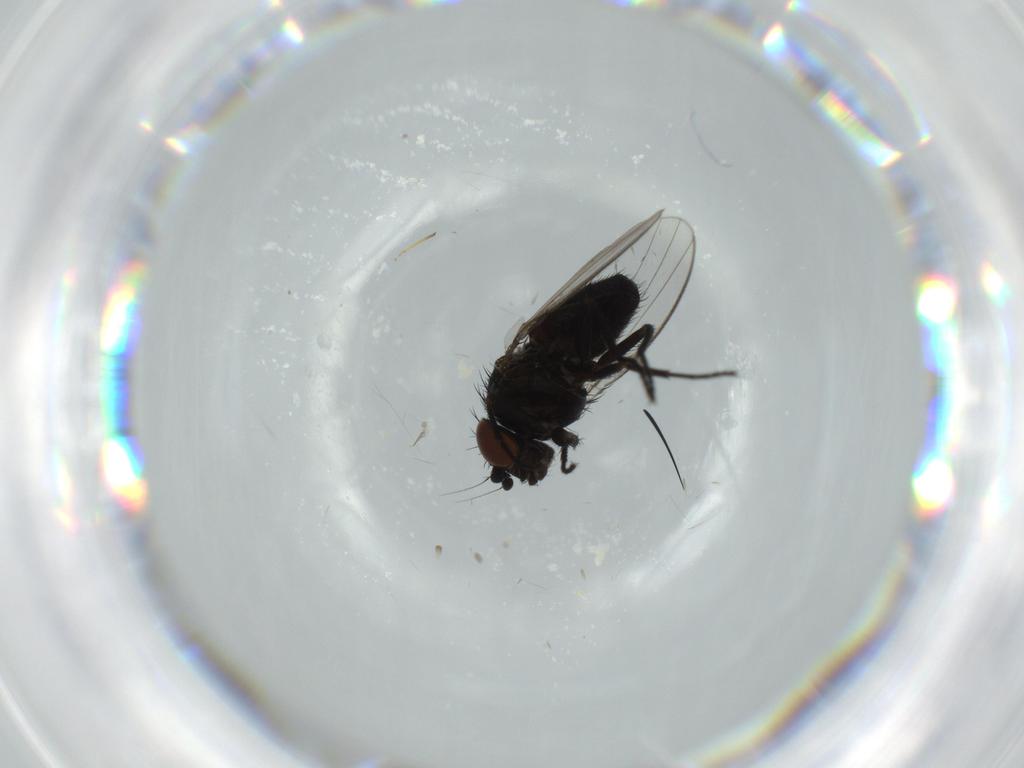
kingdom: Animalia
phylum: Arthropoda
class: Insecta
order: Diptera
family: Milichiidae
